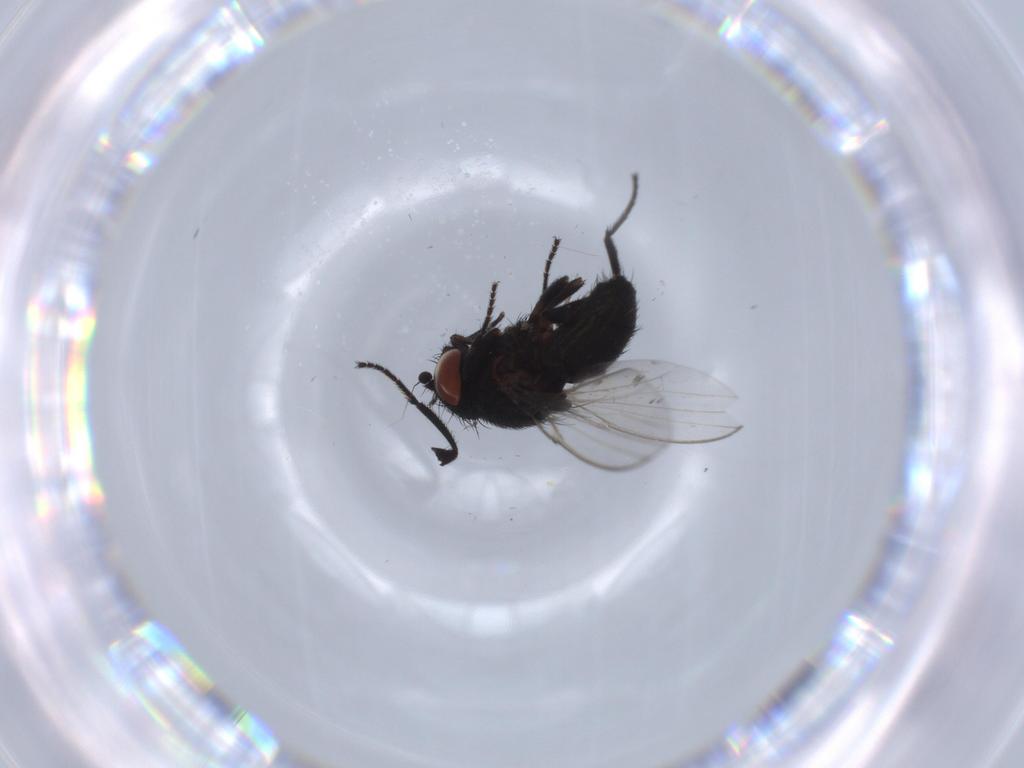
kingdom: Animalia
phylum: Arthropoda
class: Insecta
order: Diptera
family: Milichiidae
